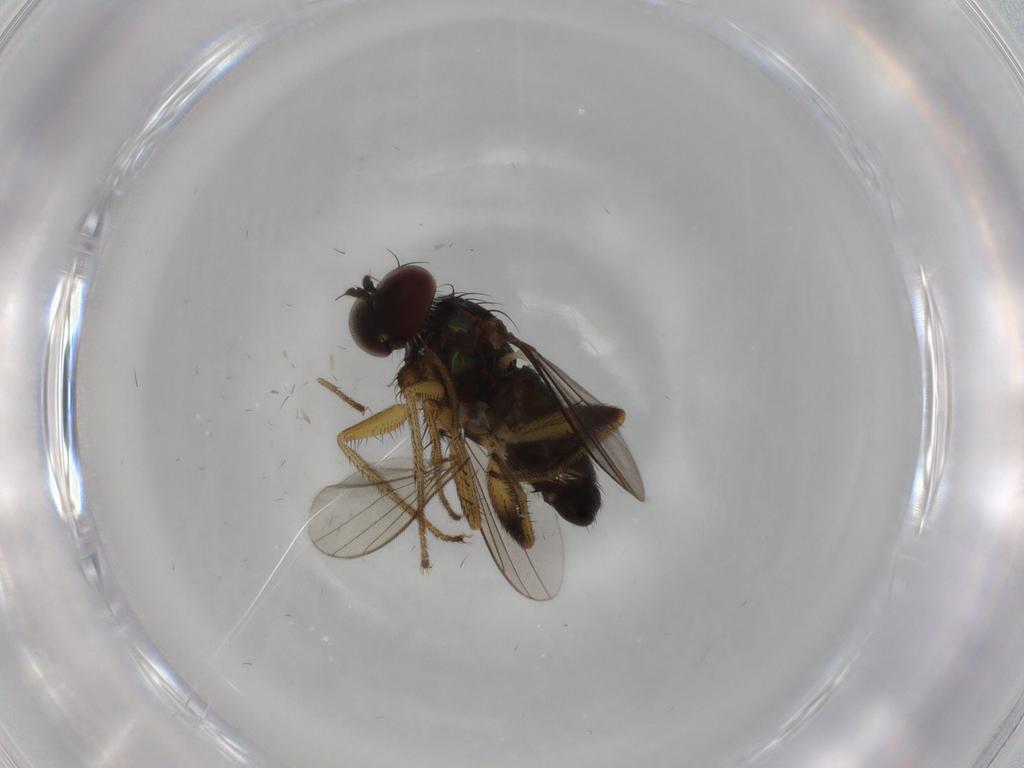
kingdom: Animalia
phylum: Arthropoda
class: Insecta
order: Diptera
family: Dolichopodidae
